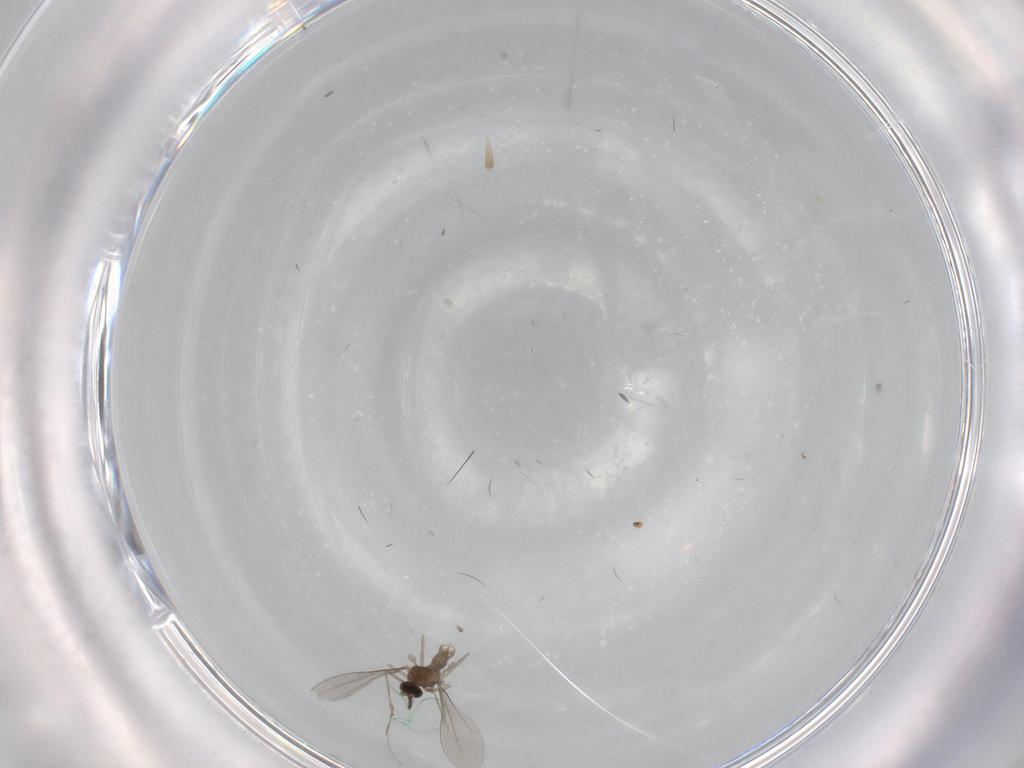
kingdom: Animalia
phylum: Arthropoda
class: Insecta
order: Diptera
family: Cecidomyiidae
